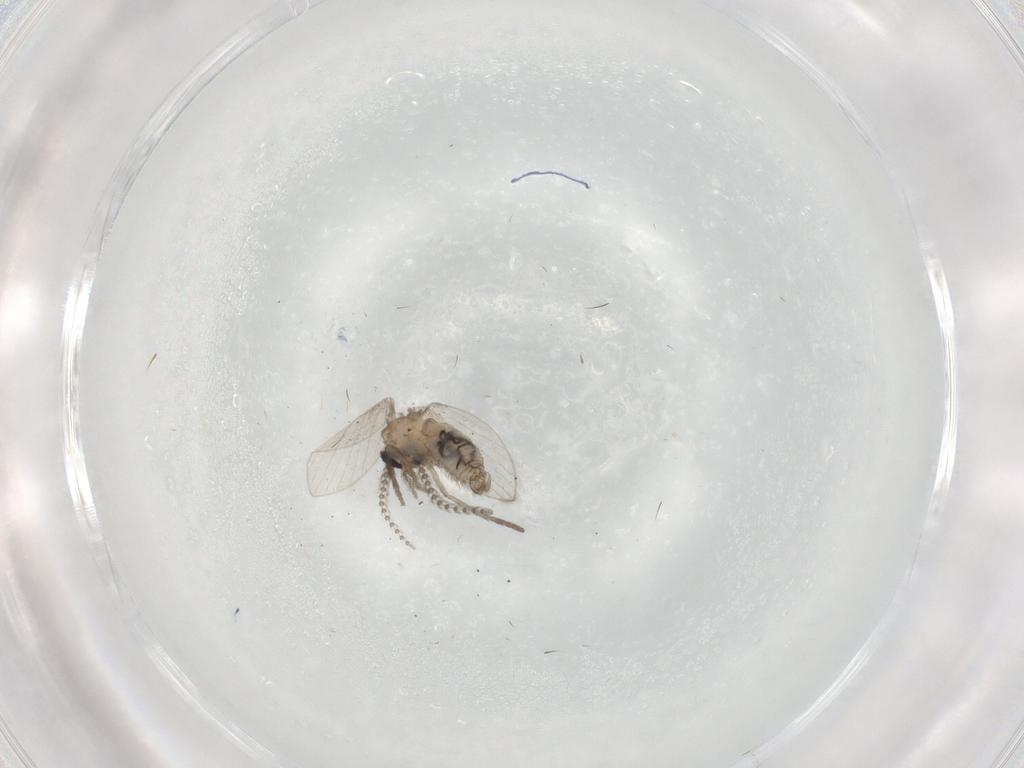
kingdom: Animalia
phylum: Arthropoda
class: Insecta
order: Diptera
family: Psychodidae
